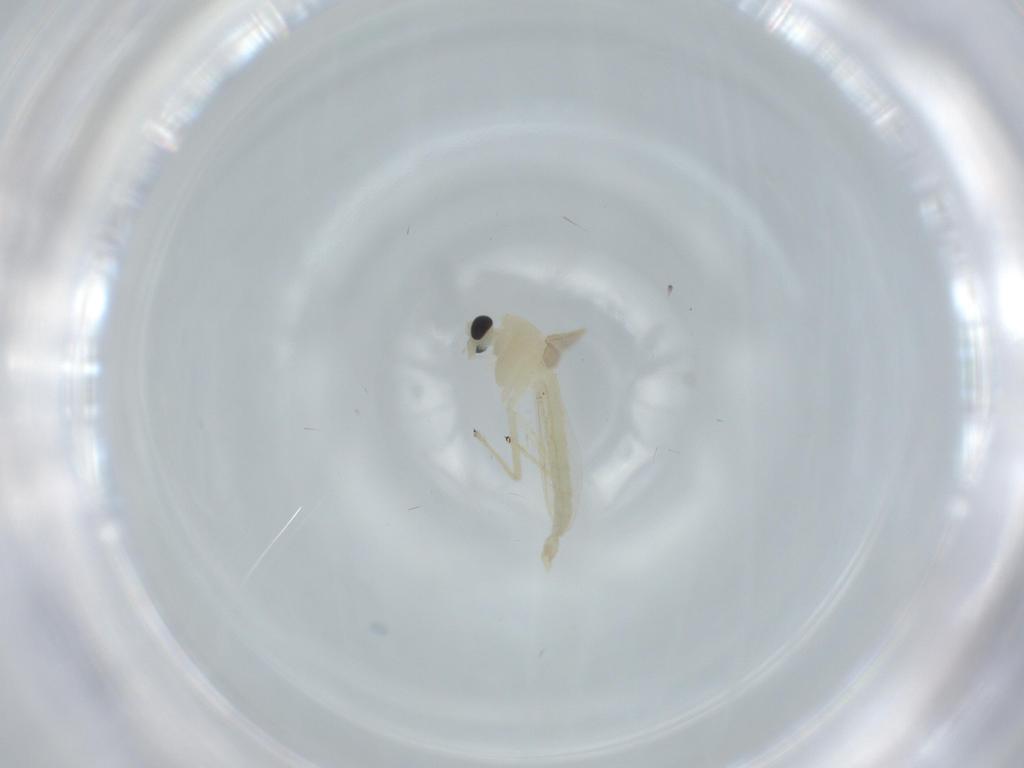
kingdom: Animalia
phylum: Arthropoda
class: Insecta
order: Diptera
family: Chironomidae
